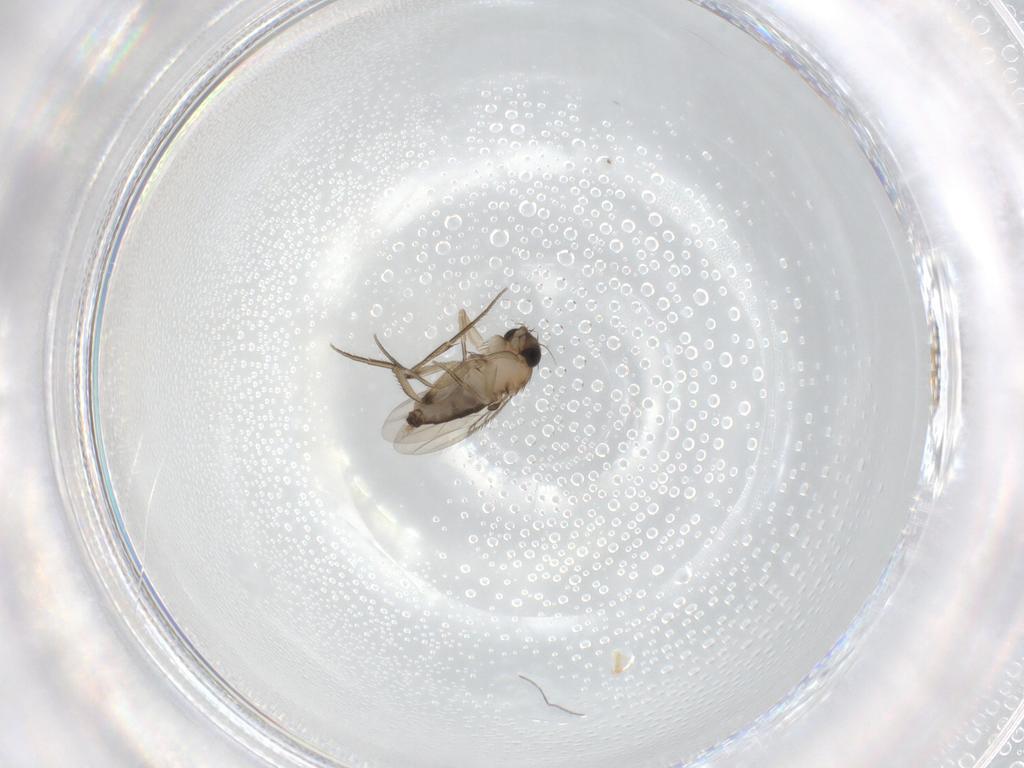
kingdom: Animalia
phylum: Arthropoda
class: Insecta
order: Diptera
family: Phoridae
